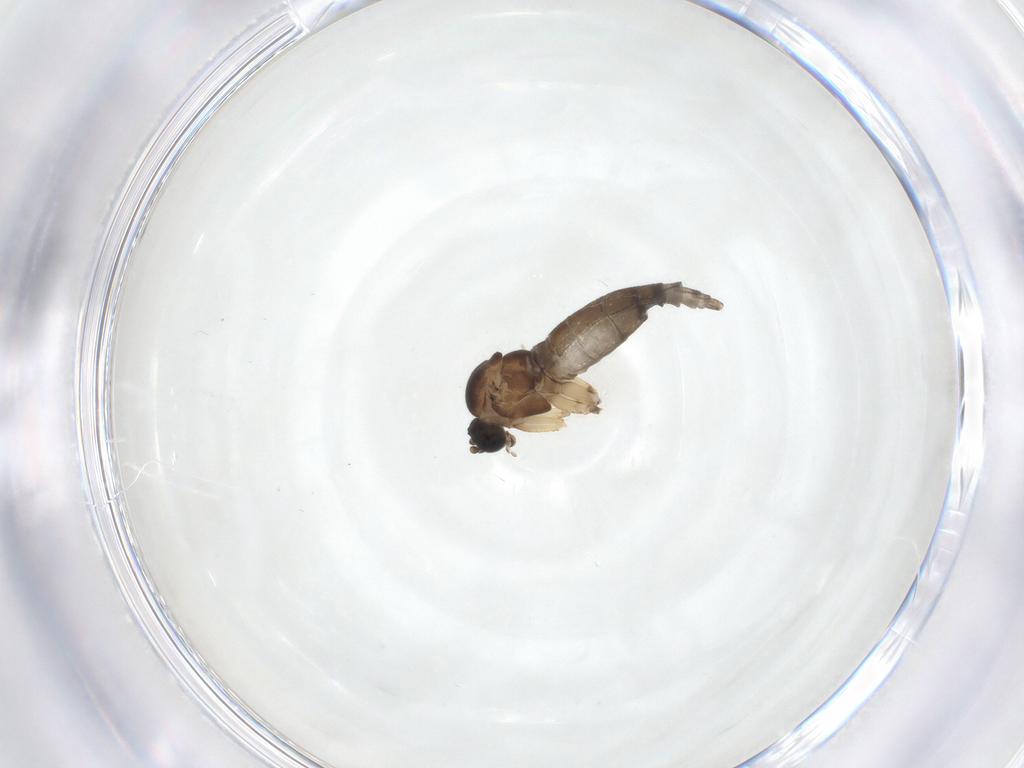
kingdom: Animalia
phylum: Arthropoda
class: Insecta
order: Diptera
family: Sciaridae
